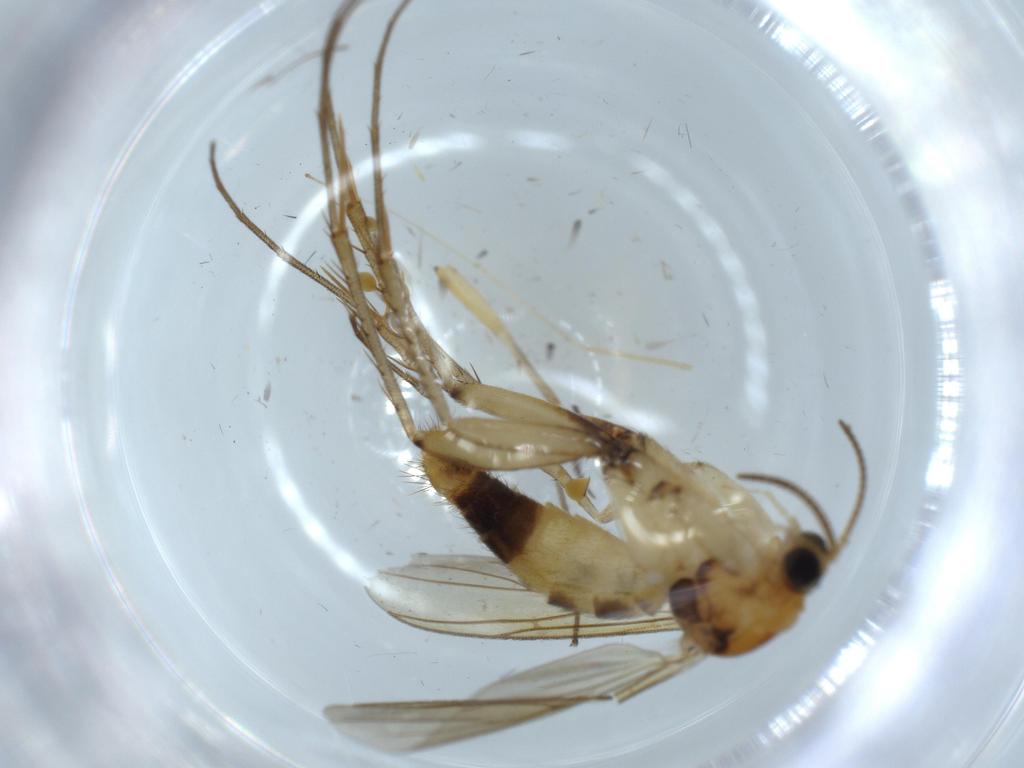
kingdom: Animalia
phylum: Arthropoda
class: Insecta
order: Diptera
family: Mycetophilidae
